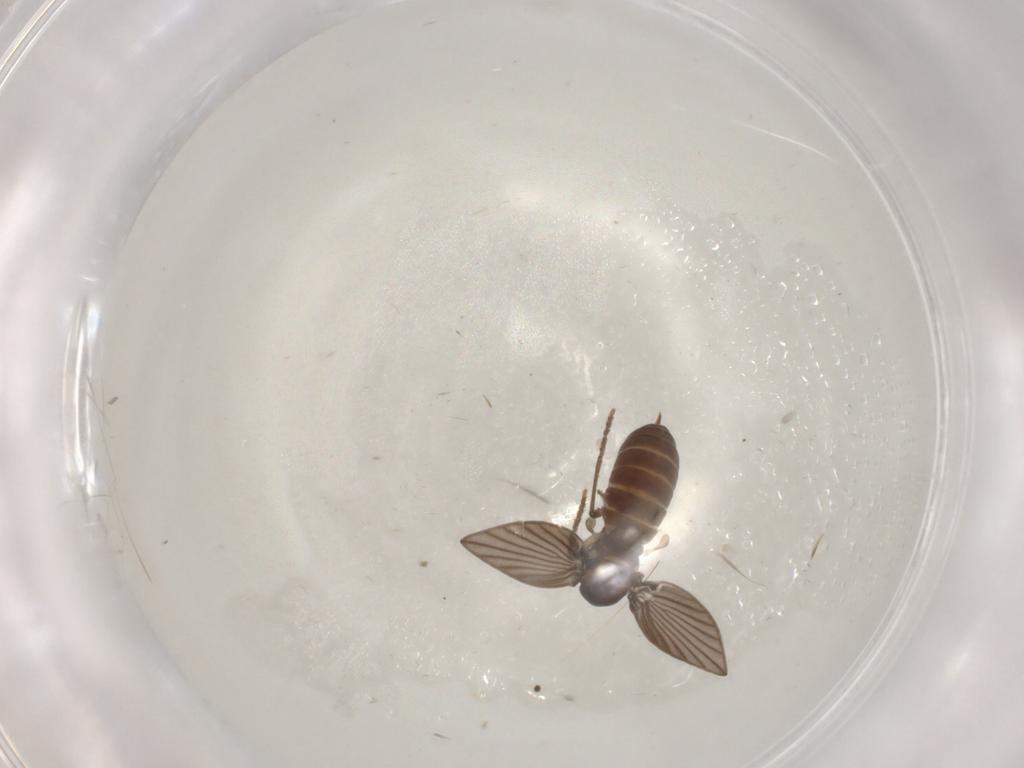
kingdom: Animalia
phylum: Arthropoda
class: Insecta
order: Diptera
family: Psychodidae
